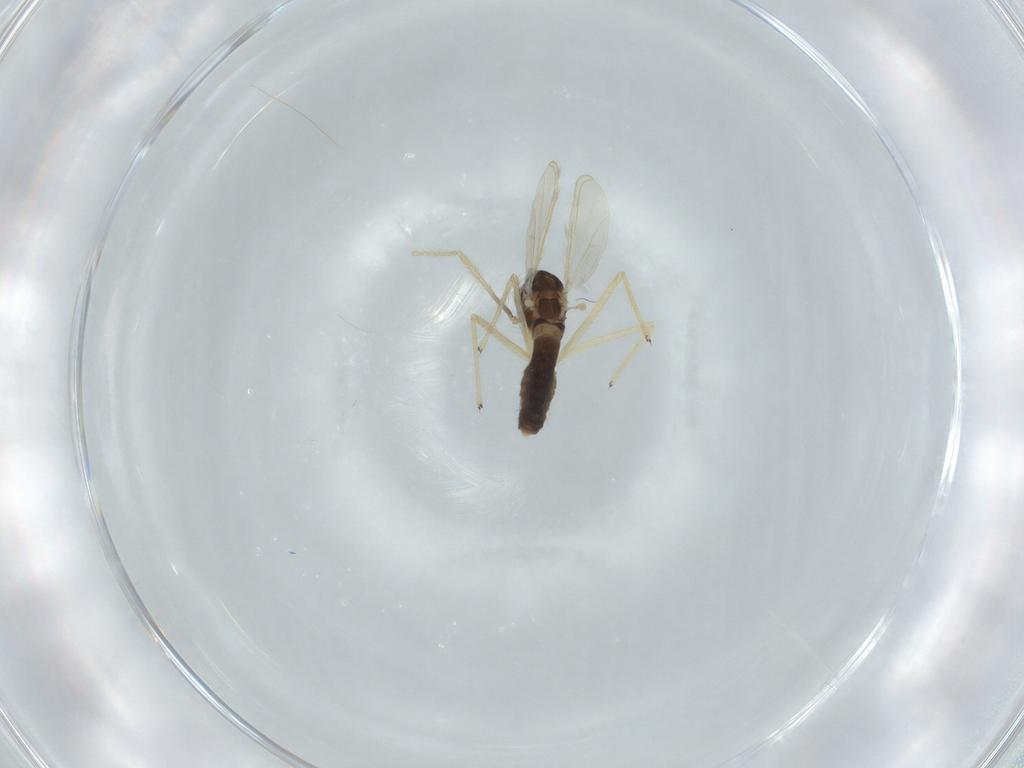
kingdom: Animalia
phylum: Arthropoda
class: Insecta
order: Diptera
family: Chironomidae
